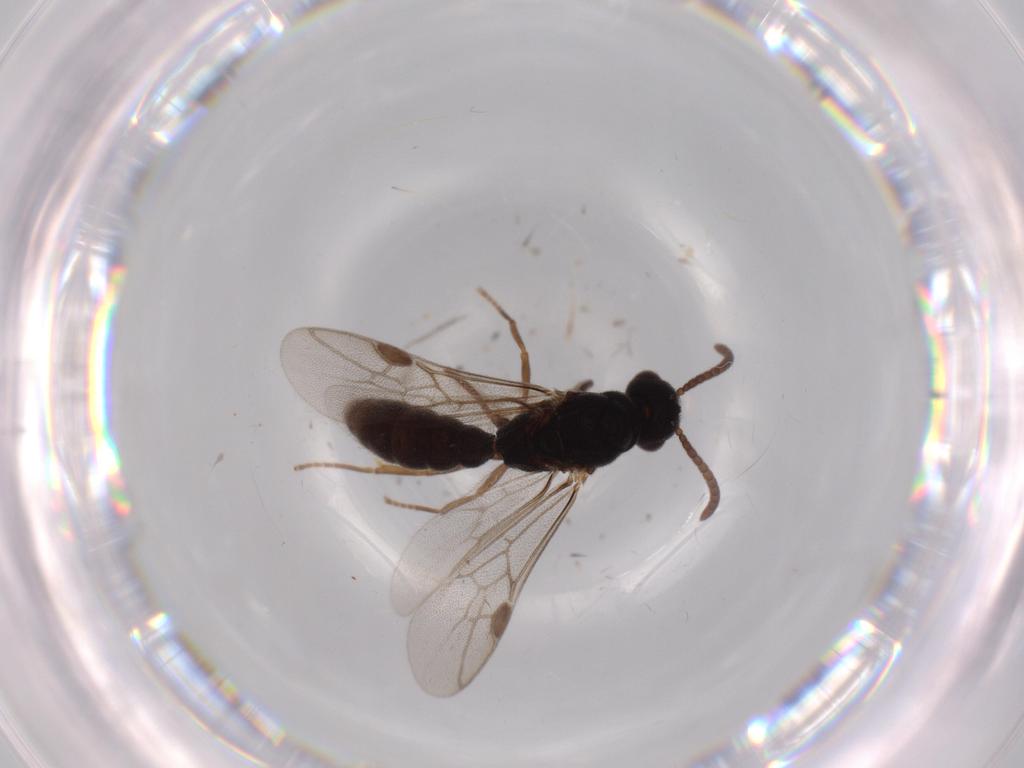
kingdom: Animalia
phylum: Arthropoda
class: Insecta
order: Hymenoptera
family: Formicidae
